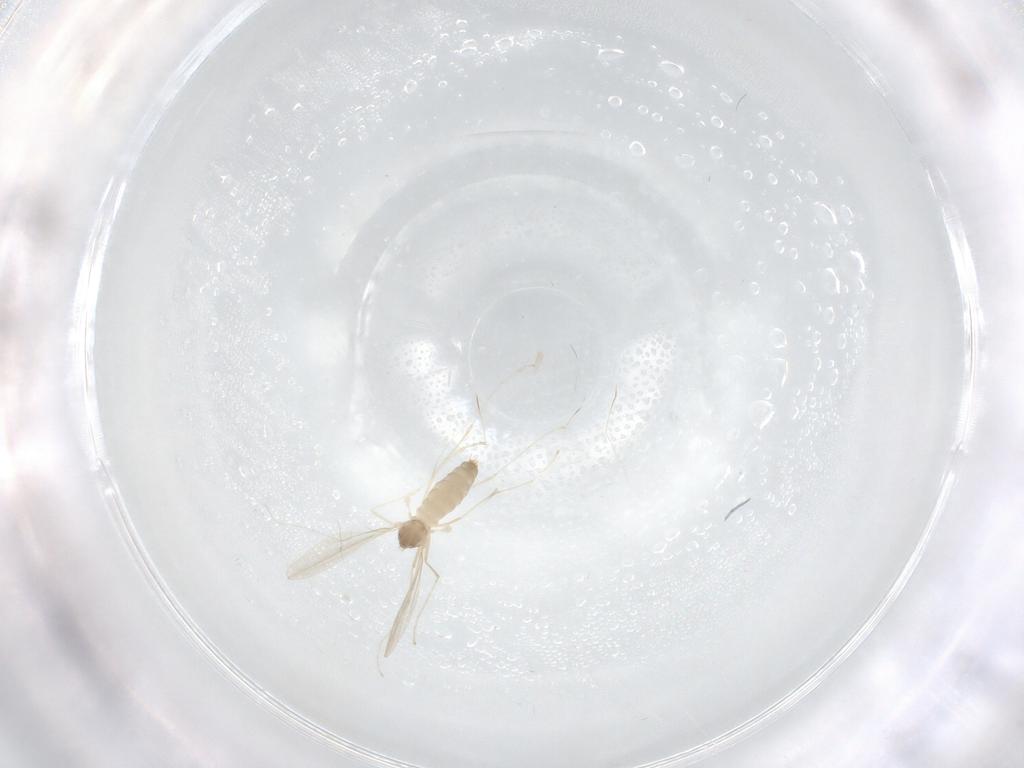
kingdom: Animalia
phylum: Arthropoda
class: Insecta
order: Diptera
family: Cecidomyiidae
